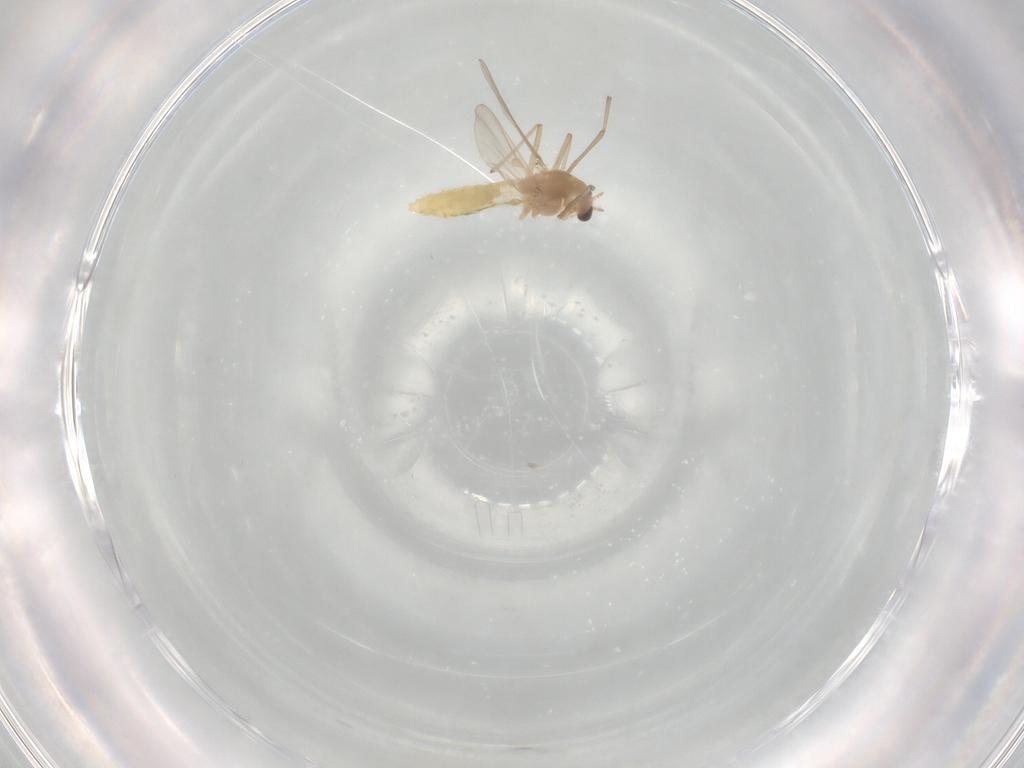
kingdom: Animalia
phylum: Arthropoda
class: Insecta
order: Diptera
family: Chironomidae
